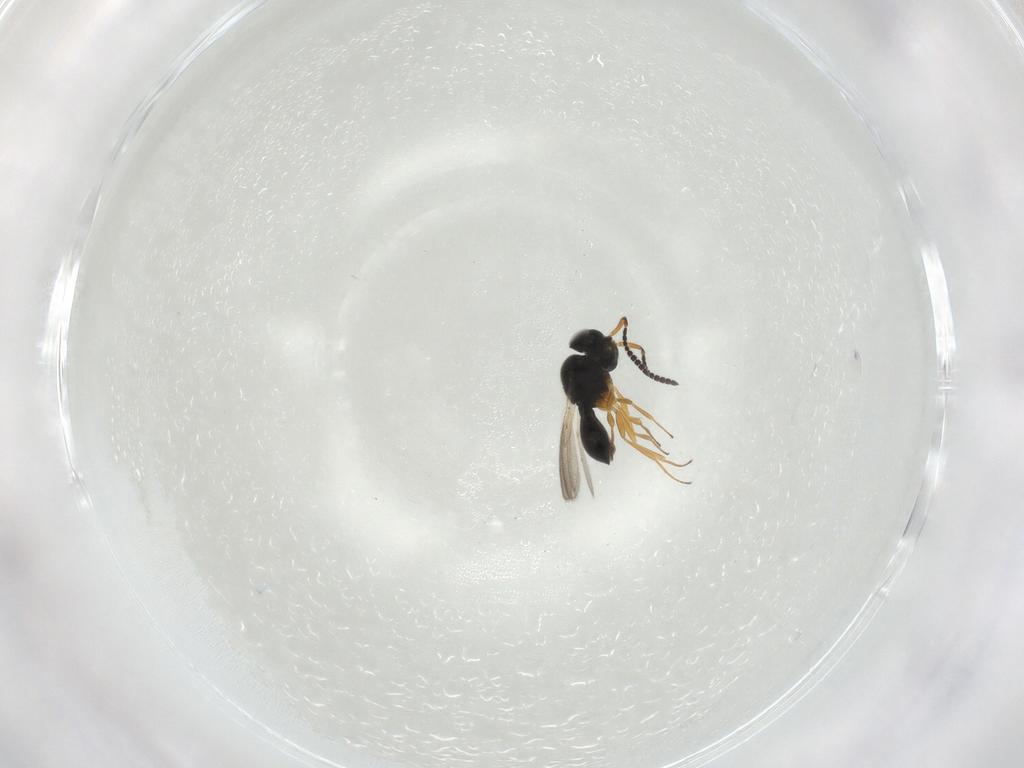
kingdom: Animalia
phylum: Arthropoda
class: Insecta
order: Hymenoptera
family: Scelionidae
